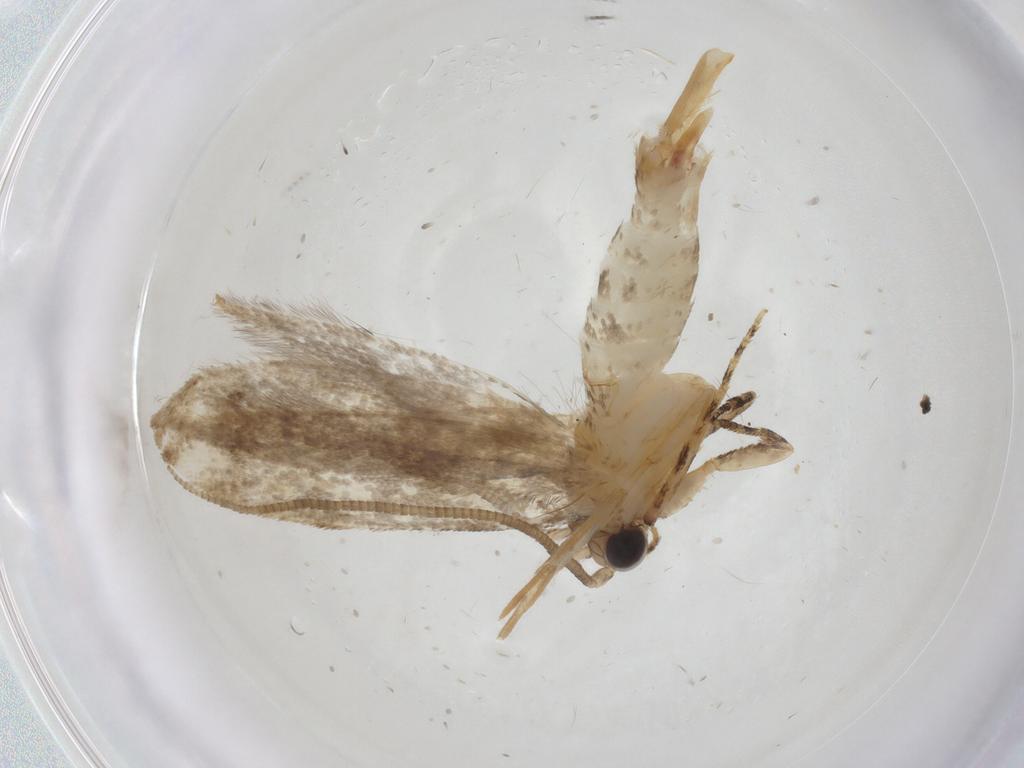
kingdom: Animalia
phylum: Arthropoda
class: Insecta
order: Lepidoptera
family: Tineidae
